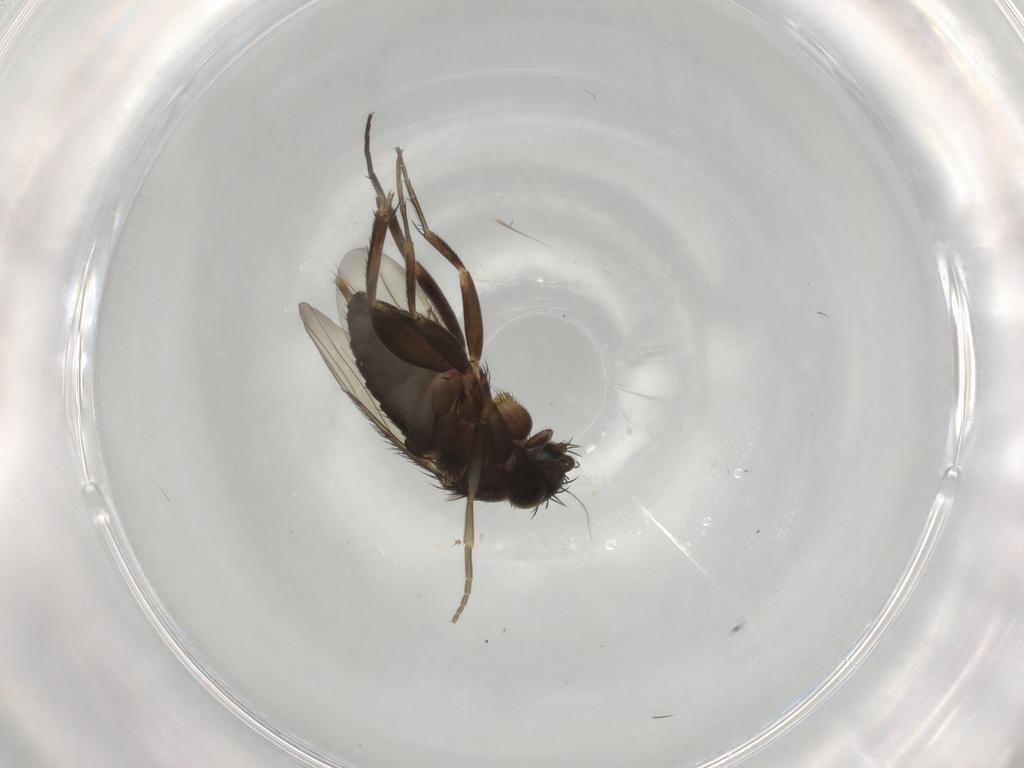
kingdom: Animalia
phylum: Arthropoda
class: Insecta
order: Diptera
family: Phoridae
